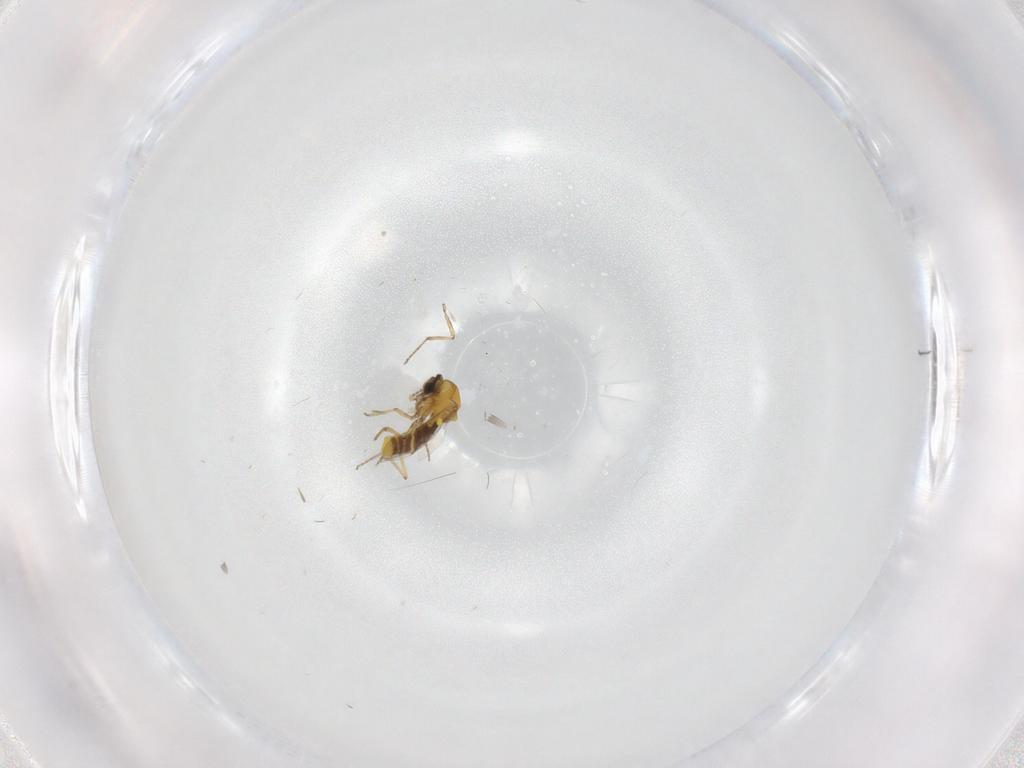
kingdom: Animalia
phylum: Arthropoda
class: Insecta
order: Diptera
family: Ceratopogonidae
